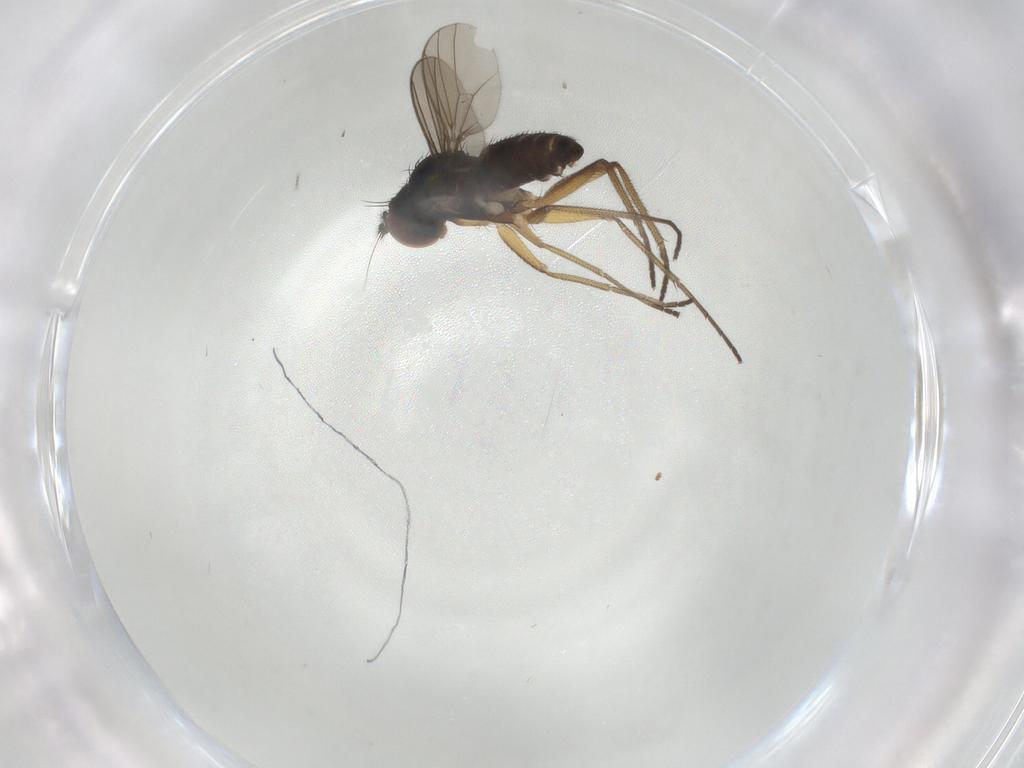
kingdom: Animalia
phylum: Arthropoda
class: Insecta
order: Diptera
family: Dolichopodidae
